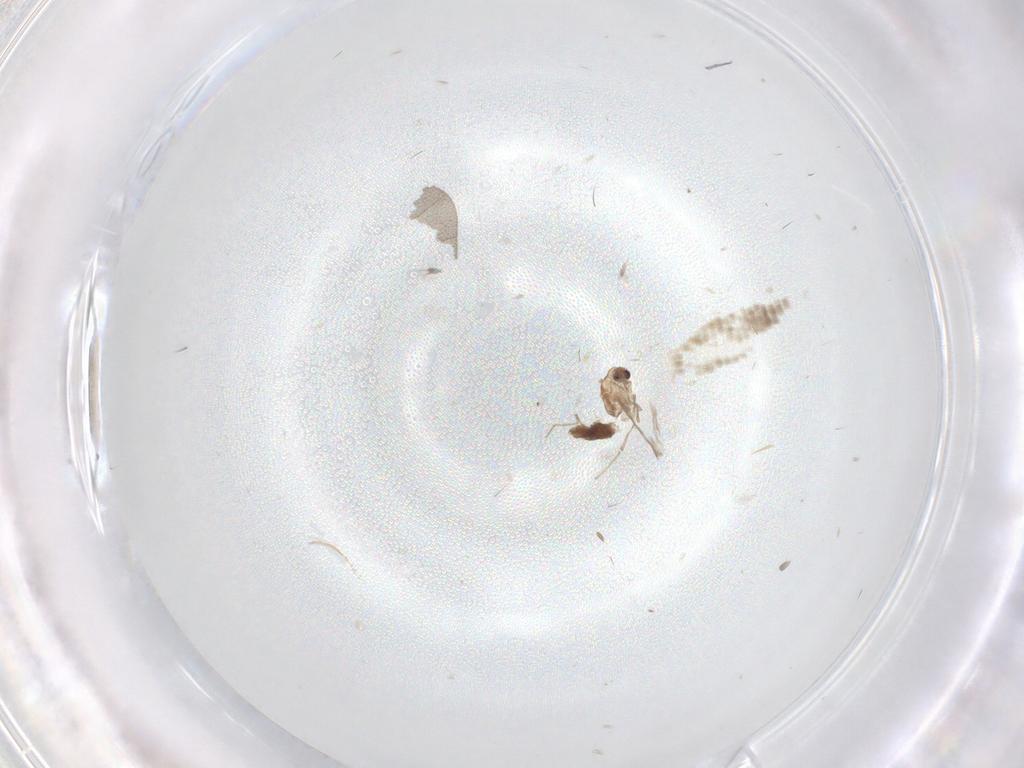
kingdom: Animalia
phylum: Arthropoda
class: Insecta
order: Diptera
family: Chironomidae
